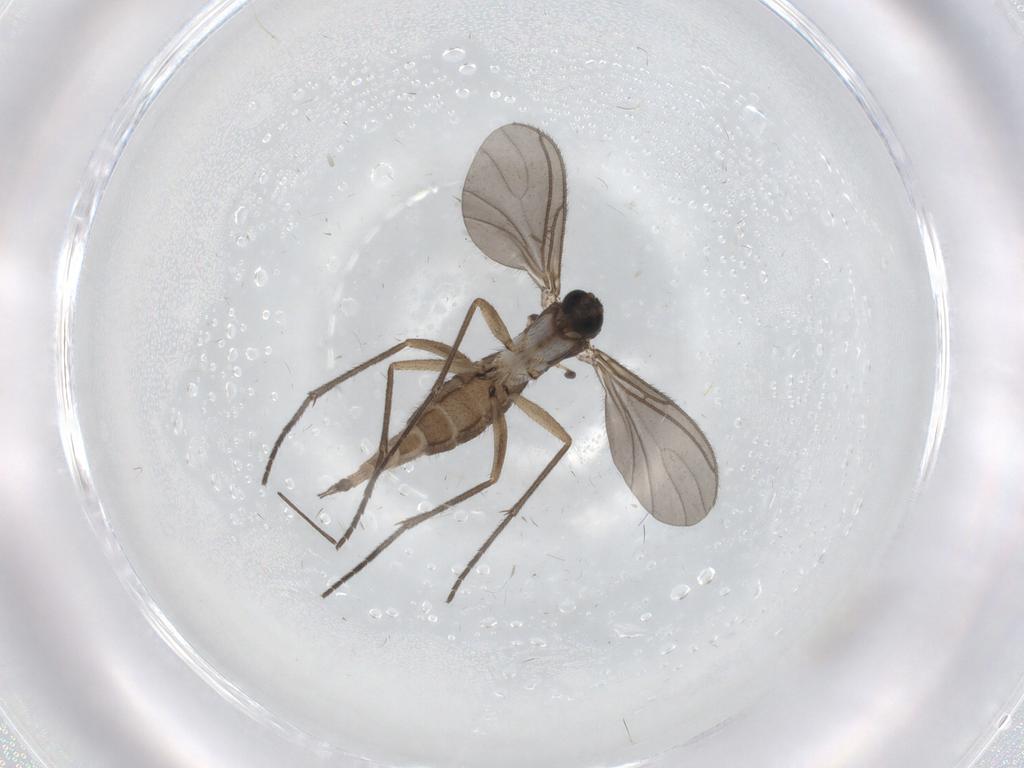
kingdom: Animalia
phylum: Arthropoda
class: Insecta
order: Diptera
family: Sciaridae
